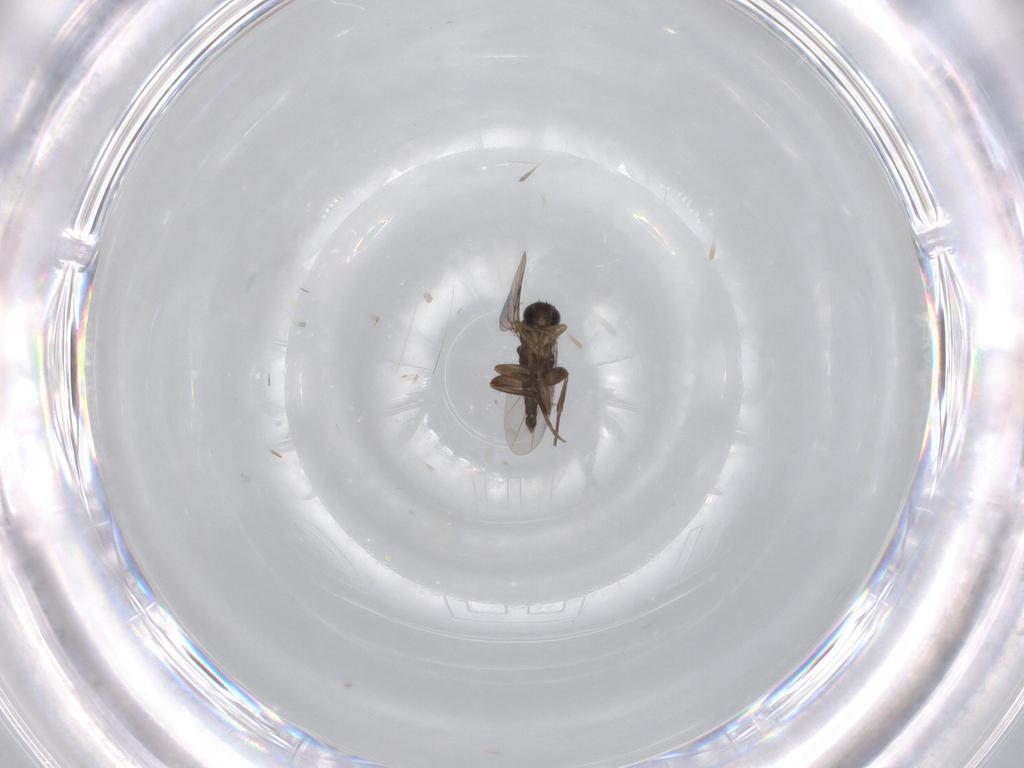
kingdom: Animalia
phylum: Arthropoda
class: Insecta
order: Diptera
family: Phoridae
